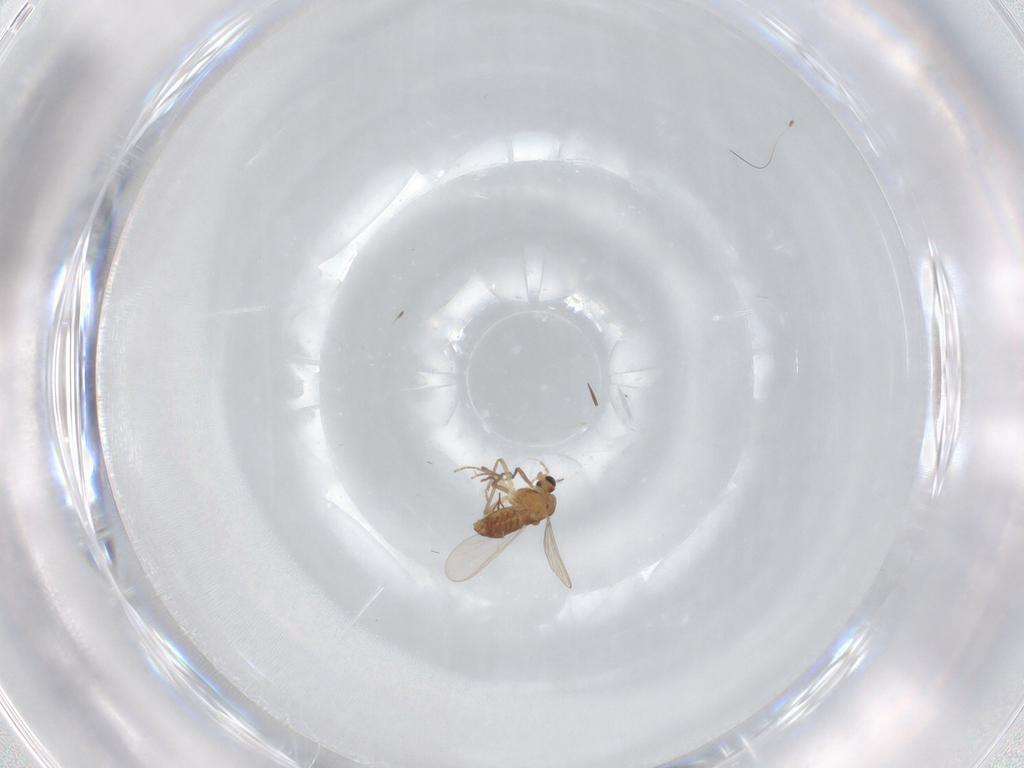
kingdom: Animalia
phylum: Arthropoda
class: Insecta
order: Diptera
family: Chironomidae
